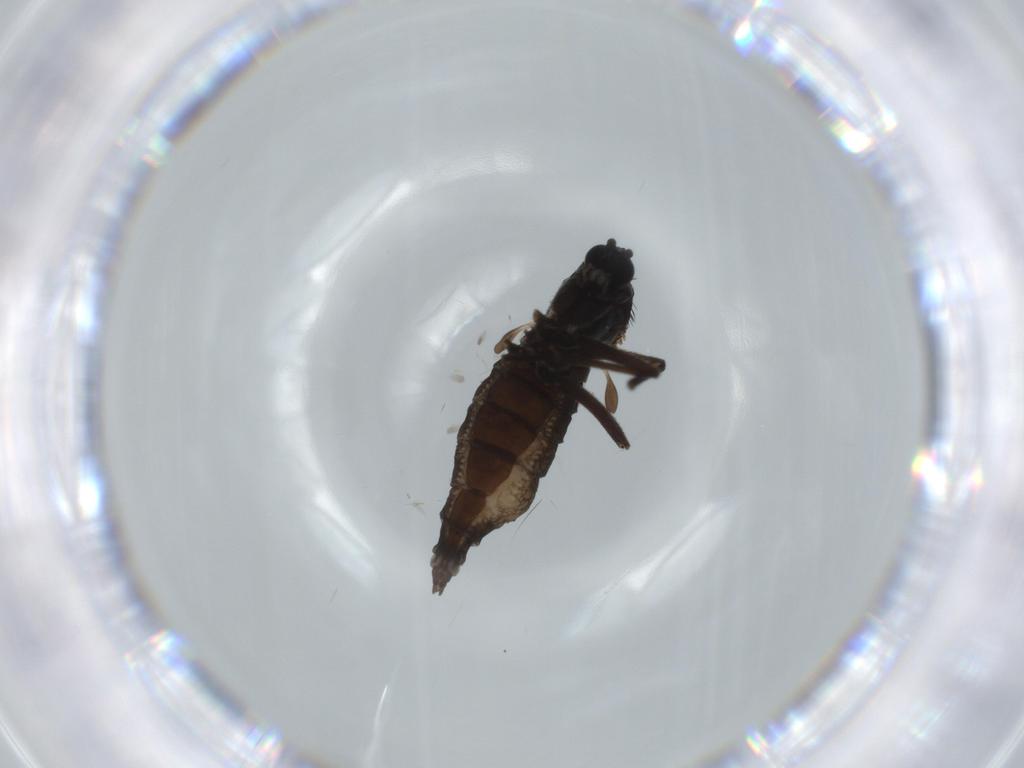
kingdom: Animalia
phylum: Arthropoda
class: Insecta
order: Diptera
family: Sciaridae
